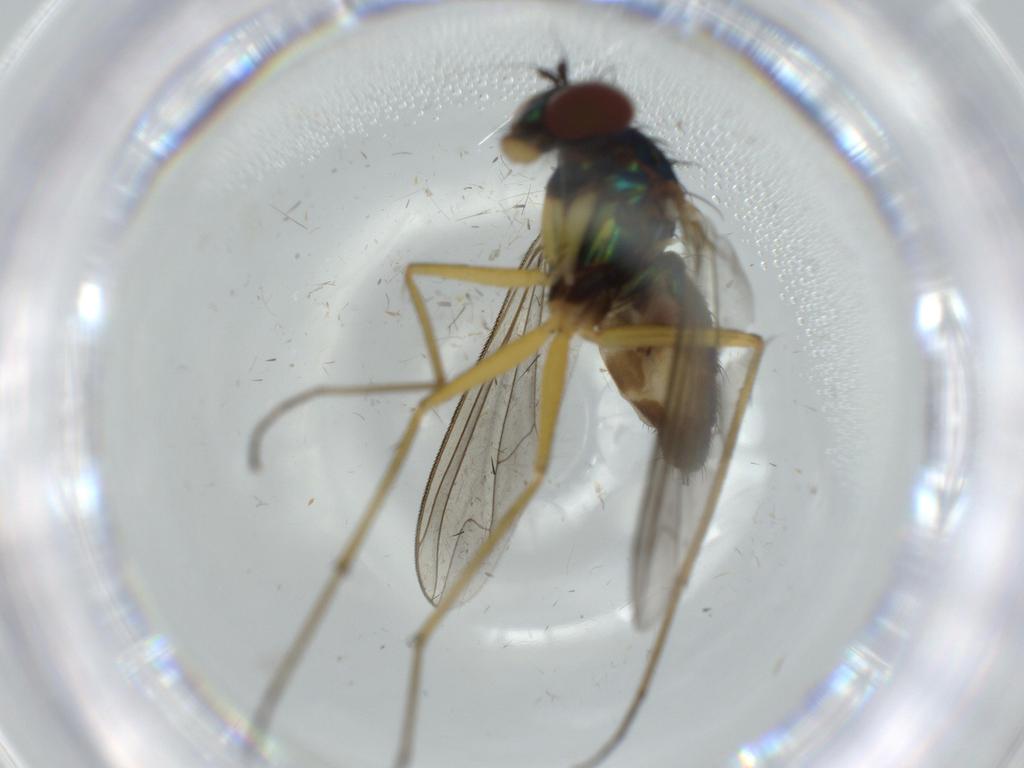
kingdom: Animalia
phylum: Arthropoda
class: Insecta
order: Diptera
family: Dolichopodidae
